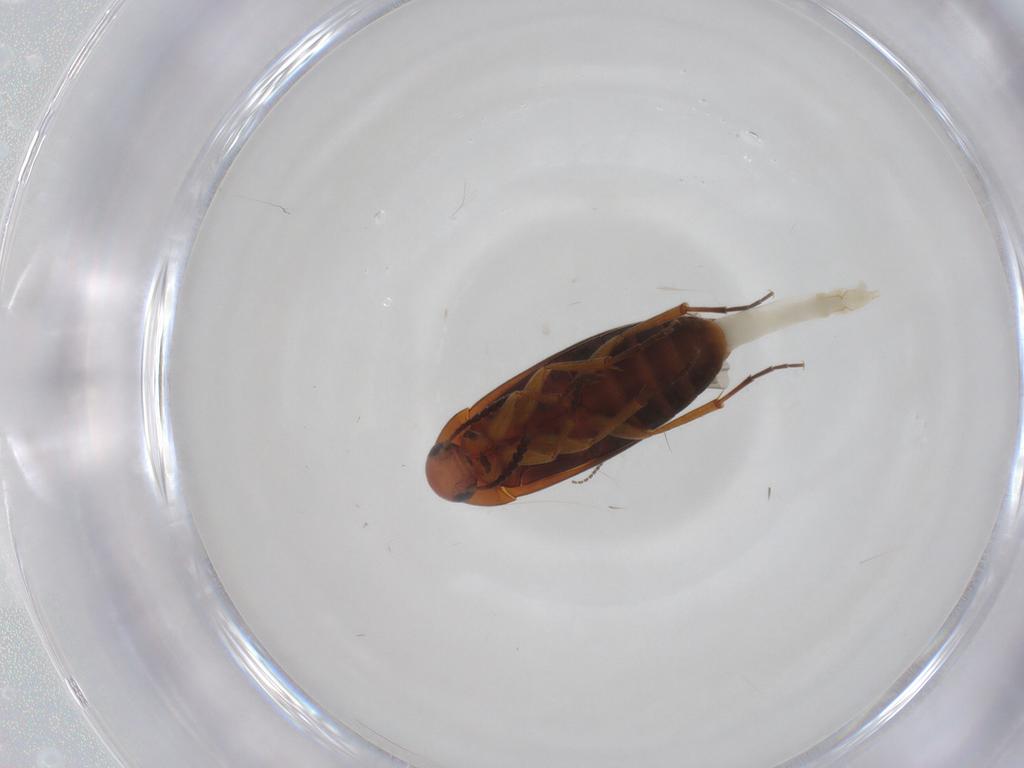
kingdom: Animalia
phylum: Arthropoda
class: Insecta
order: Coleoptera
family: Scraptiidae
